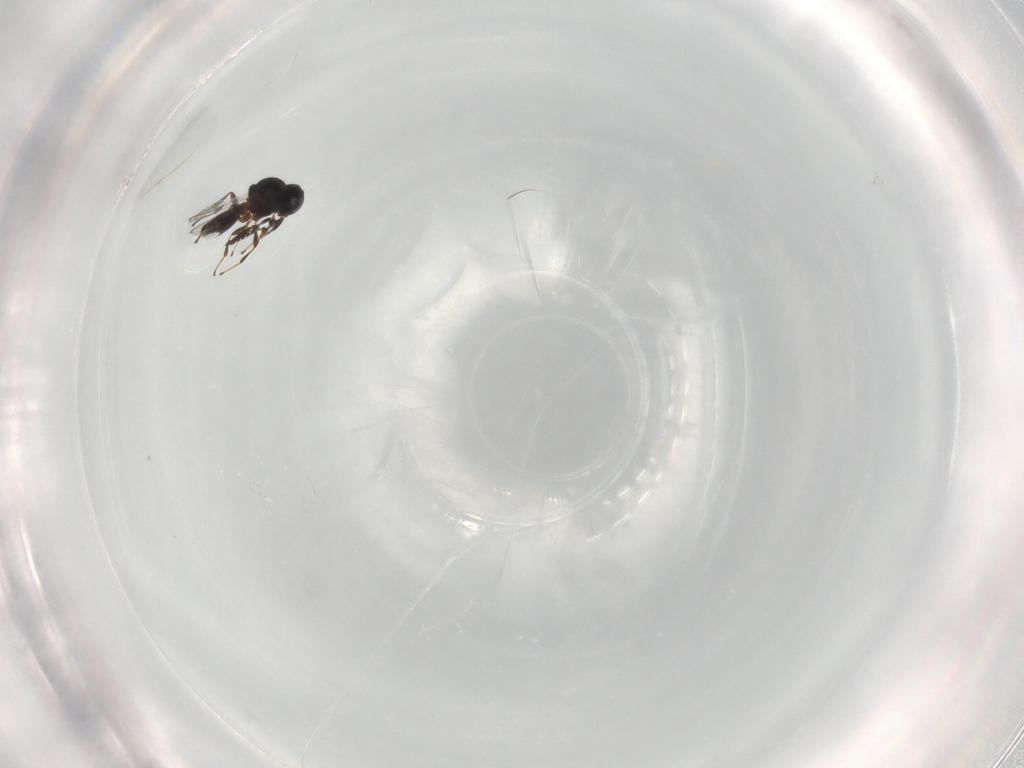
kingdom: Animalia
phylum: Arthropoda
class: Insecta
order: Hymenoptera
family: Platygastridae
